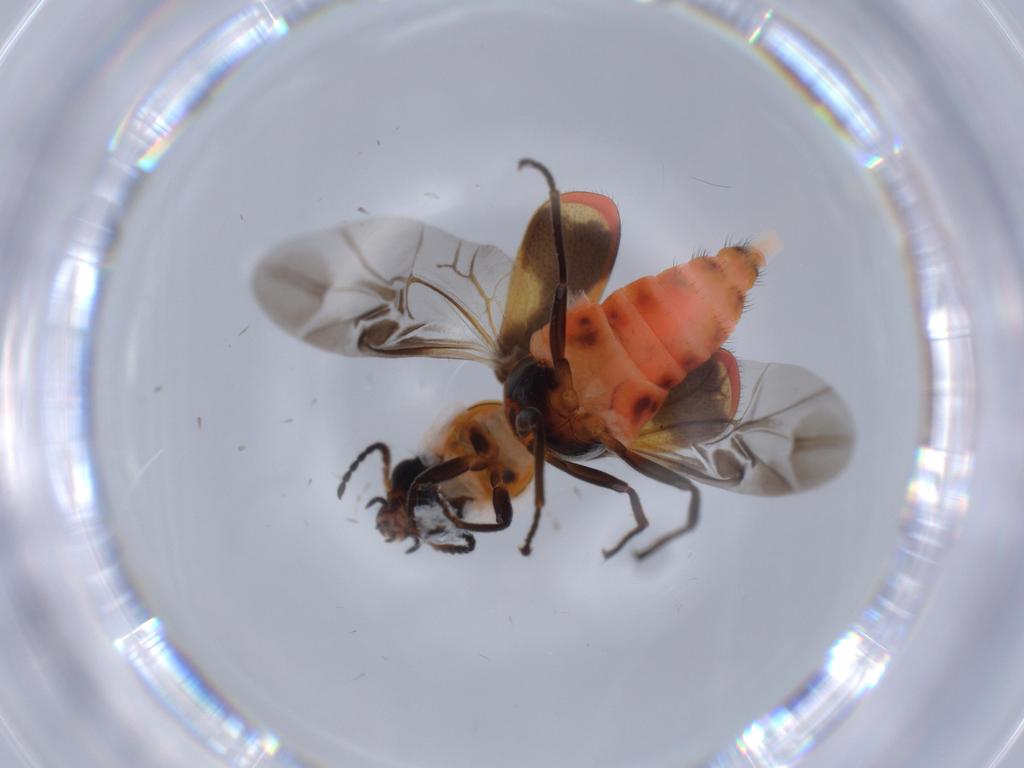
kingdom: Animalia
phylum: Arthropoda
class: Insecta
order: Coleoptera
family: Melyridae
